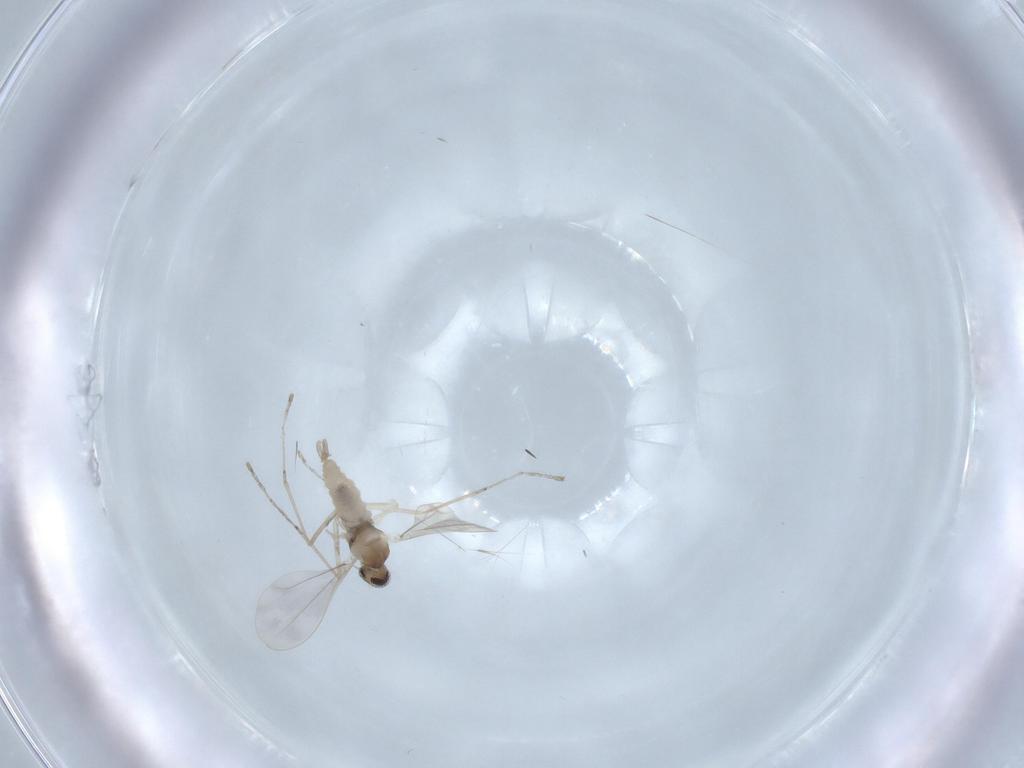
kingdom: Animalia
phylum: Arthropoda
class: Insecta
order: Diptera
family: Cecidomyiidae
